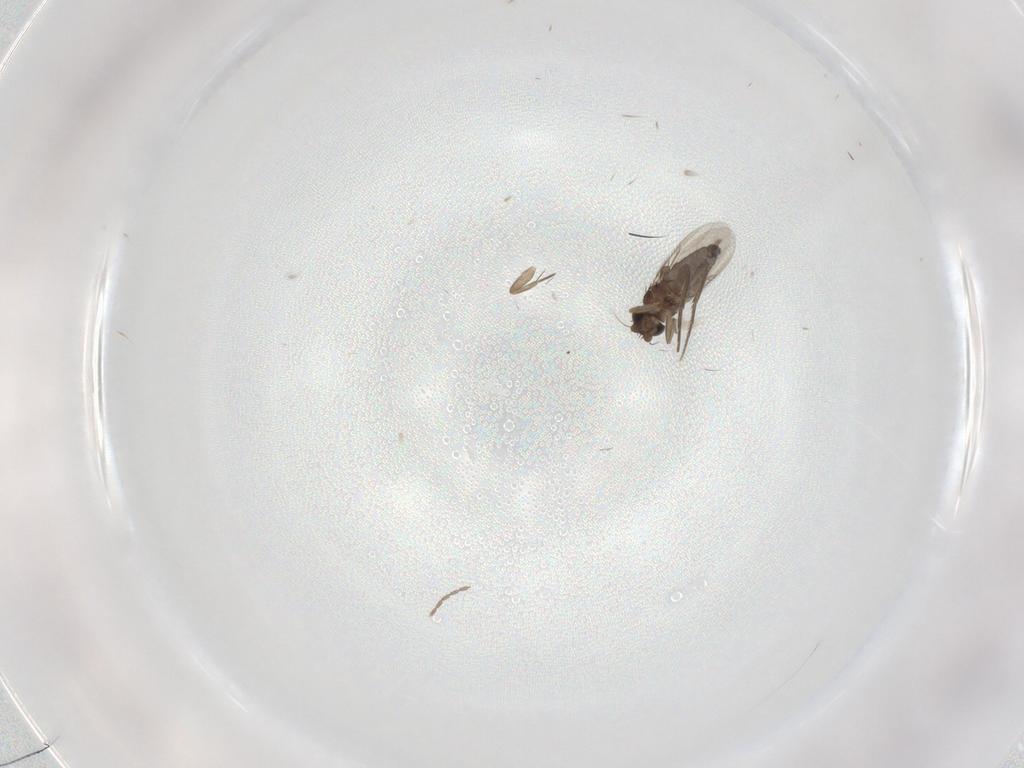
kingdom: Animalia
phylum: Arthropoda
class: Insecta
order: Diptera
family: Phoridae
